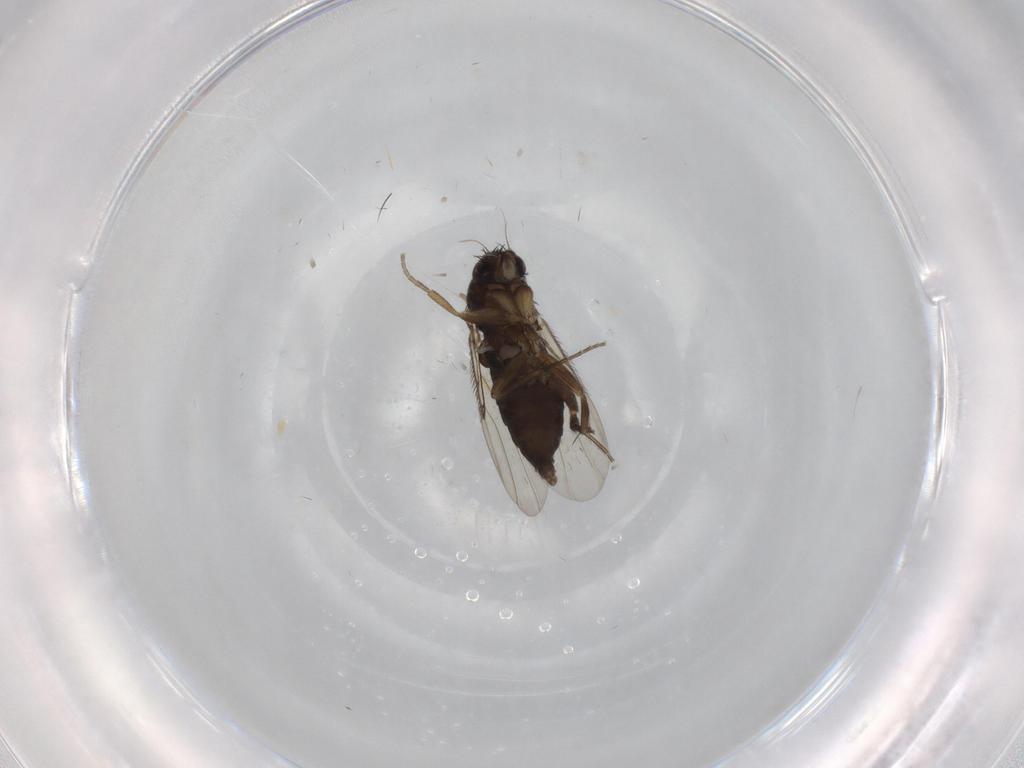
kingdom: Animalia
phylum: Arthropoda
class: Insecta
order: Diptera
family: Phoridae
